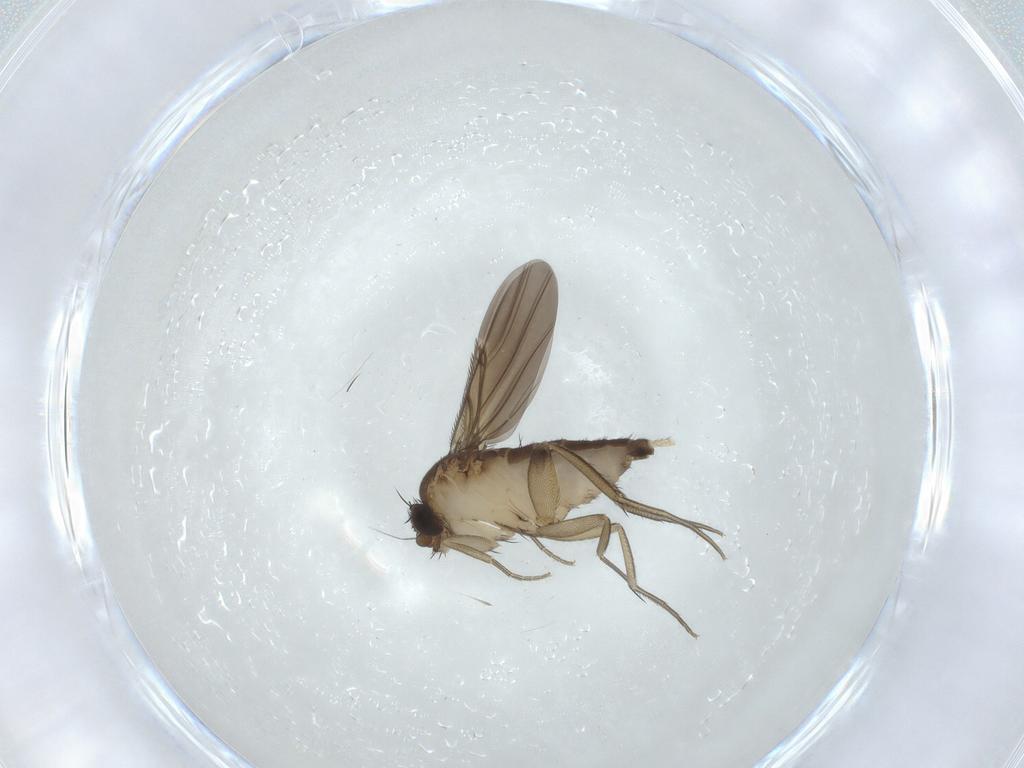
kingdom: Animalia
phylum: Arthropoda
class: Insecta
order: Diptera
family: Phoridae
